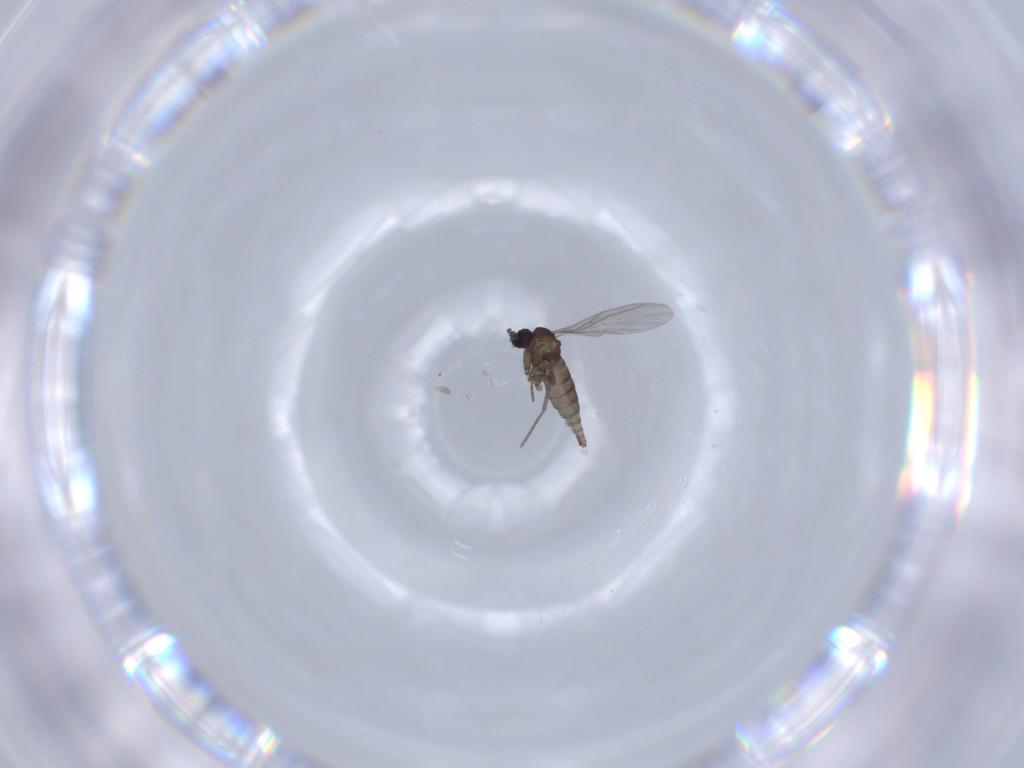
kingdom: Animalia
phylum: Arthropoda
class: Insecta
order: Diptera
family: Sciaridae
